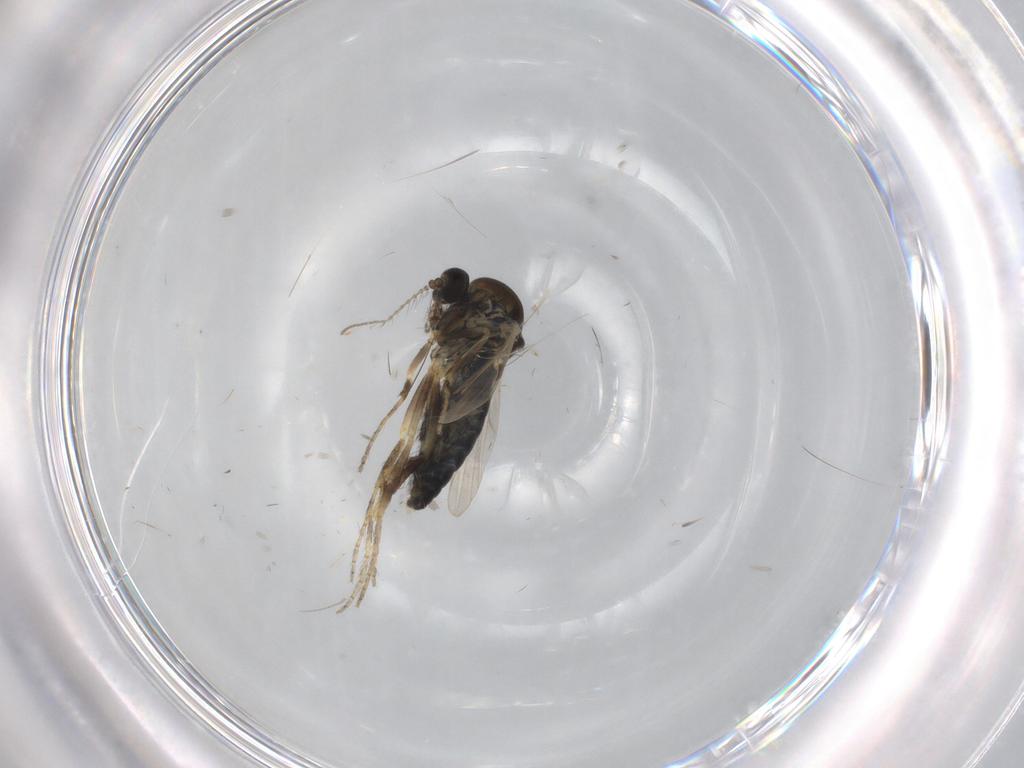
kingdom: Animalia
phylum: Arthropoda
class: Insecta
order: Diptera
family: Ceratopogonidae
